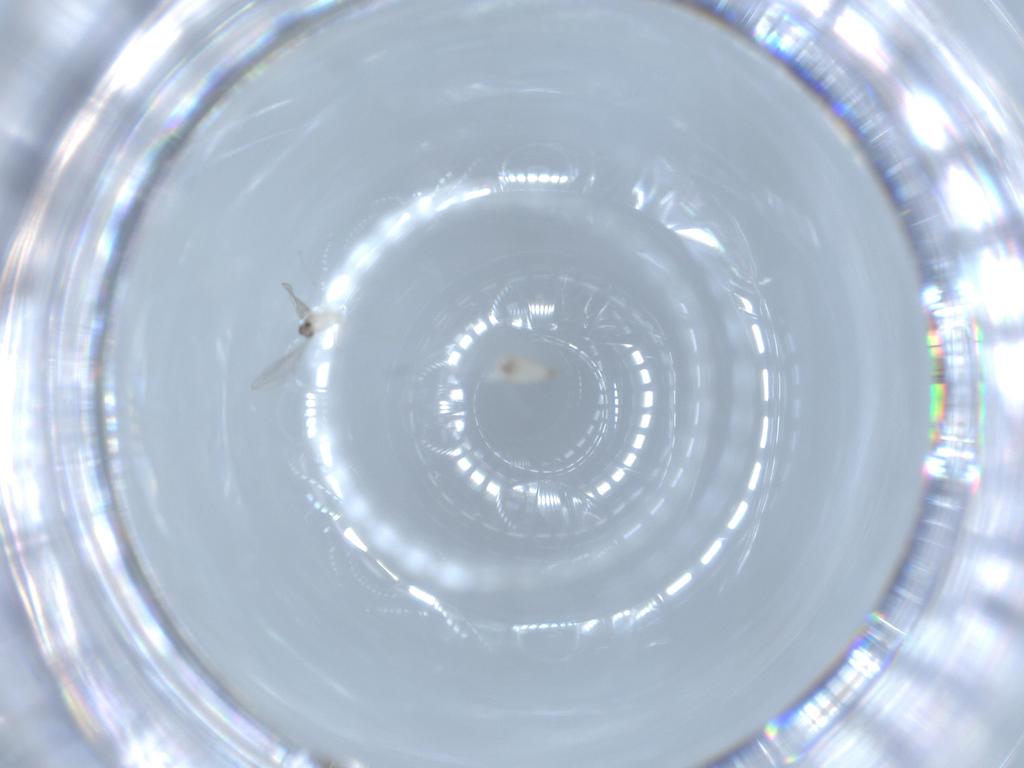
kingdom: Animalia
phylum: Arthropoda
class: Insecta
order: Diptera
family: Cecidomyiidae
